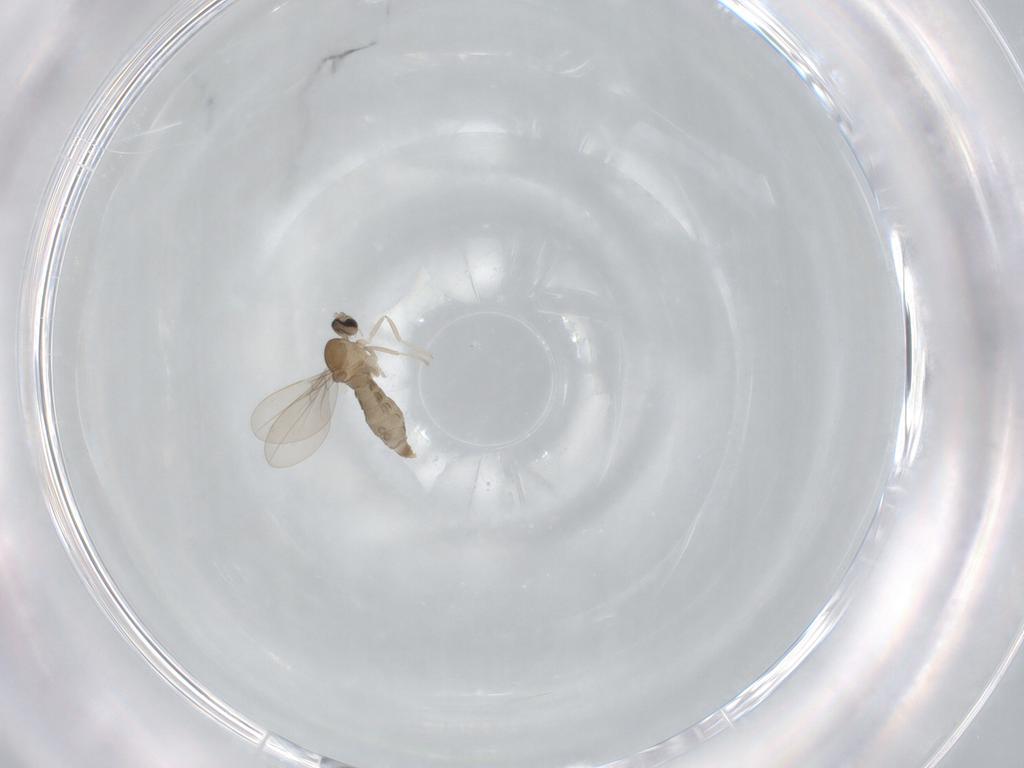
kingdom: Animalia
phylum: Arthropoda
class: Insecta
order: Diptera
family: Cecidomyiidae
